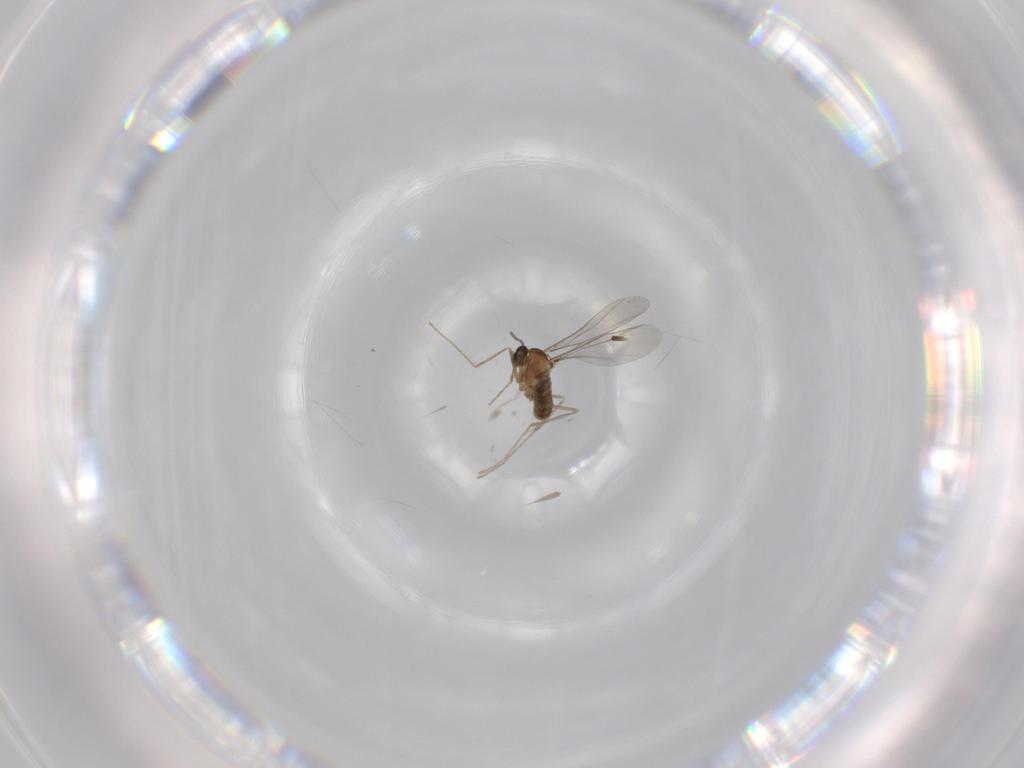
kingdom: Animalia
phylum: Arthropoda
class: Insecta
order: Diptera
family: Cecidomyiidae
